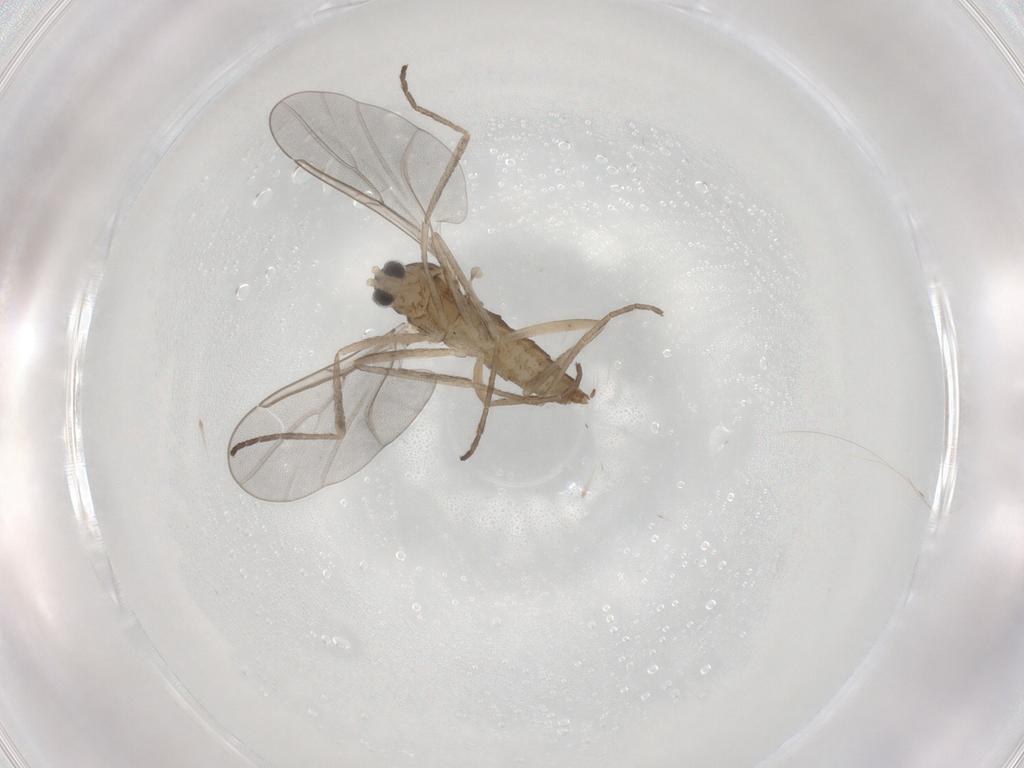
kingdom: Animalia
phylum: Arthropoda
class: Insecta
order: Diptera
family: Cecidomyiidae
